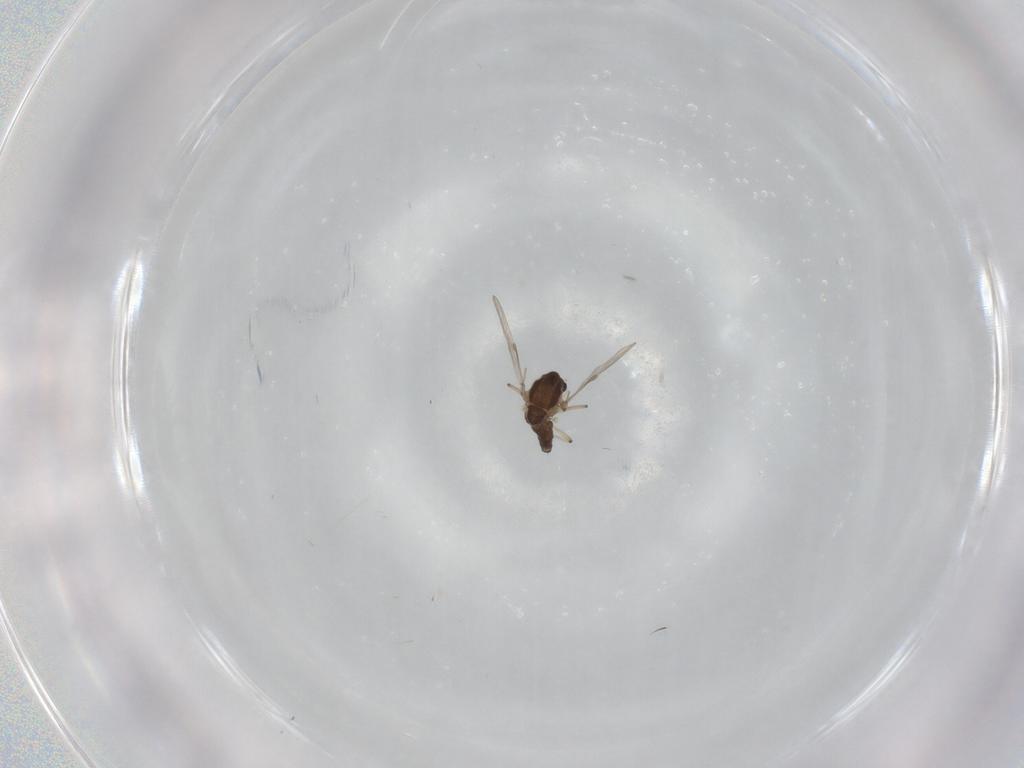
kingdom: Animalia
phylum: Arthropoda
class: Insecta
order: Diptera
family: Chironomidae
